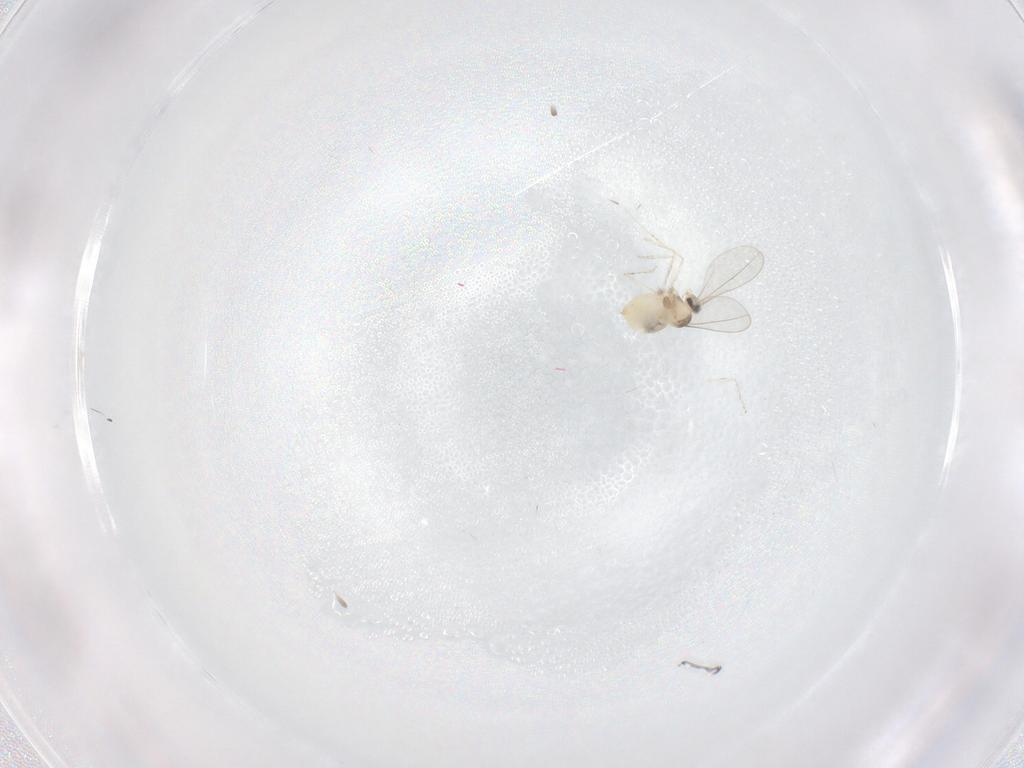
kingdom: Animalia
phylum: Arthropoda
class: Insecta
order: Diptera
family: Cecidomyiidae
